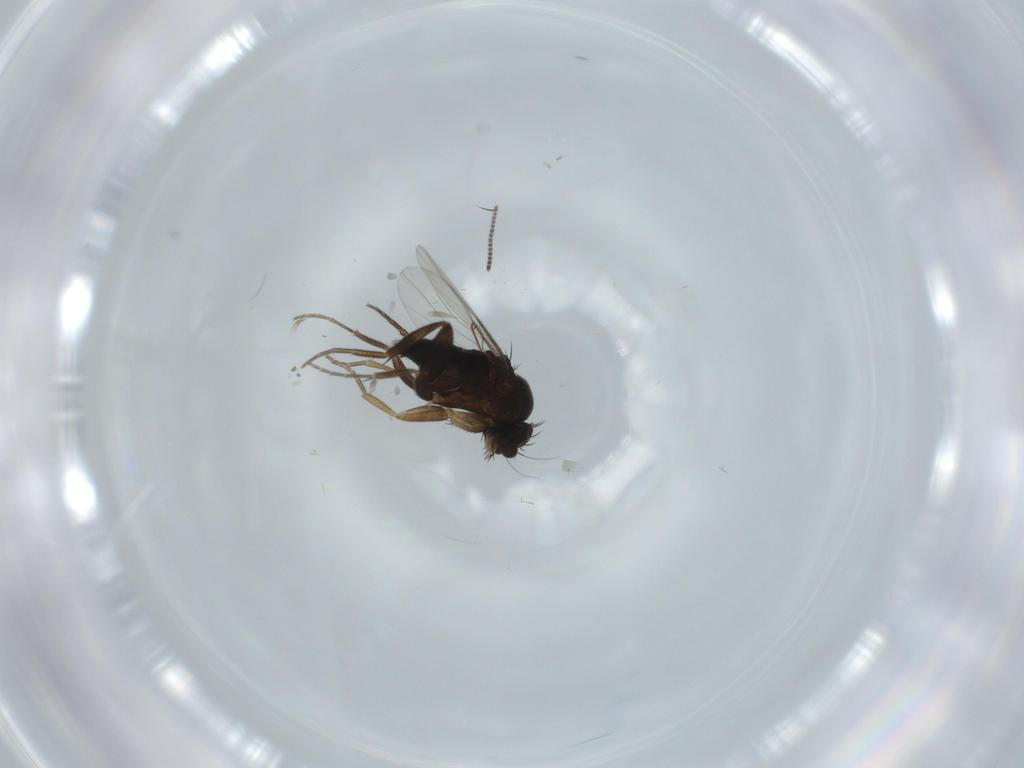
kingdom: Animalia
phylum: Arthropoda
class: Insecta
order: Diptera
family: Phoridae
